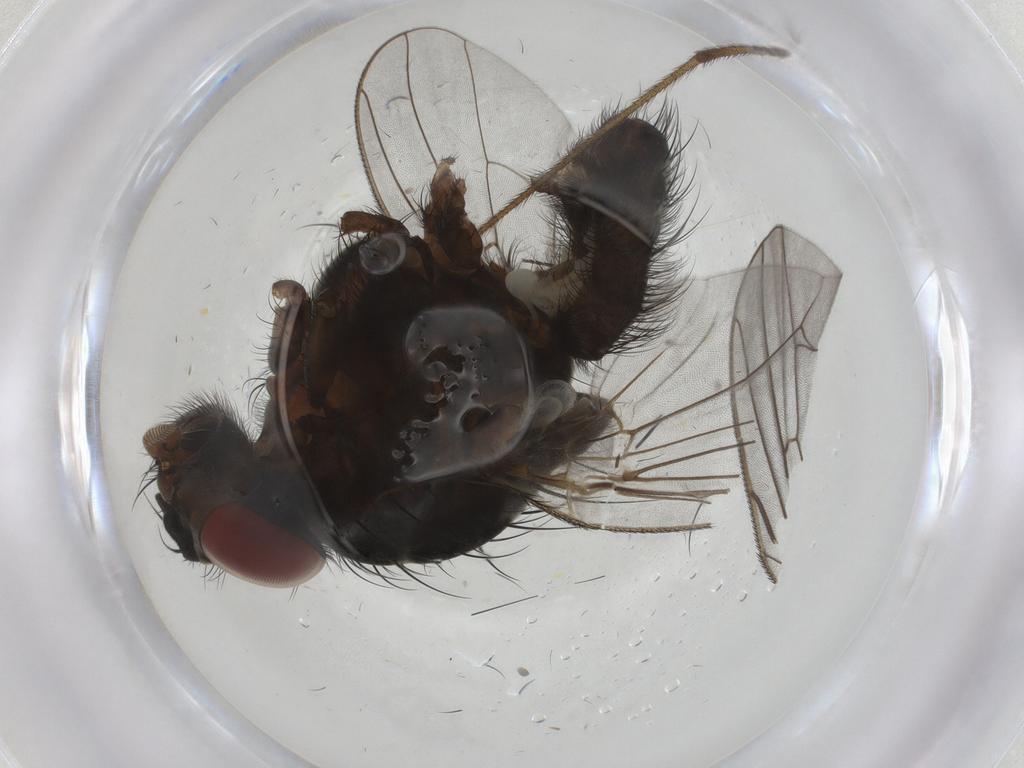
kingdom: Animalia
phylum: Arthropoda
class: Insecta
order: Diptera
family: Anthomyiidae
